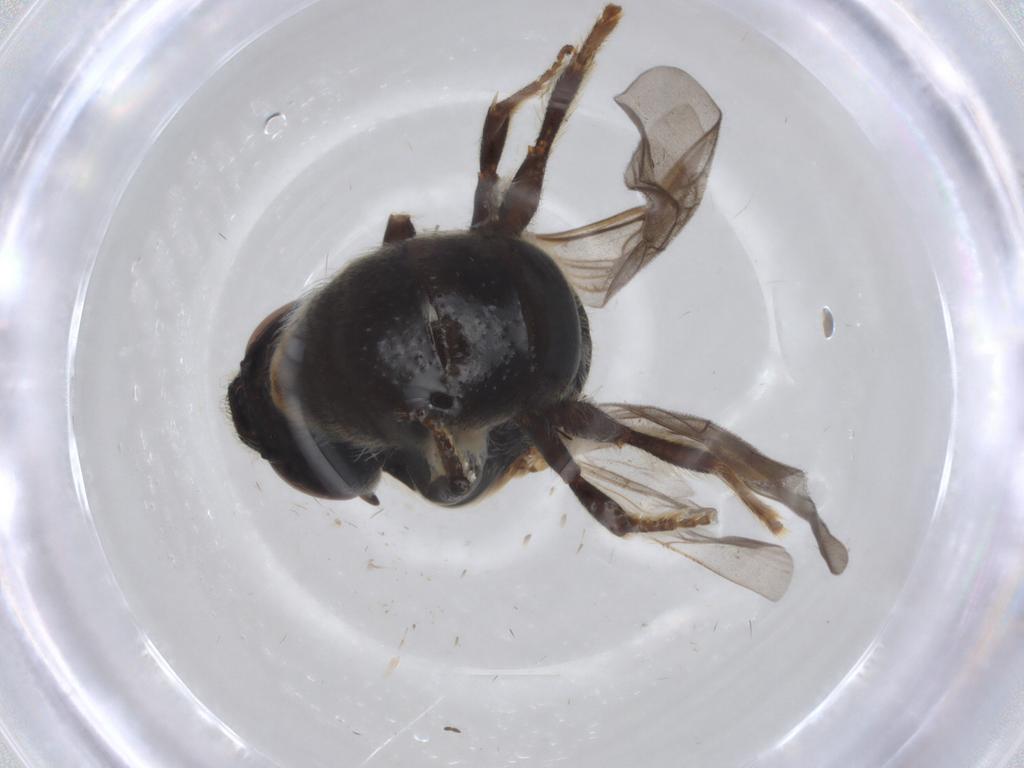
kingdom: Animalia
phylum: Arthropoda
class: Insecta
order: Hymenoptera
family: Apidae
